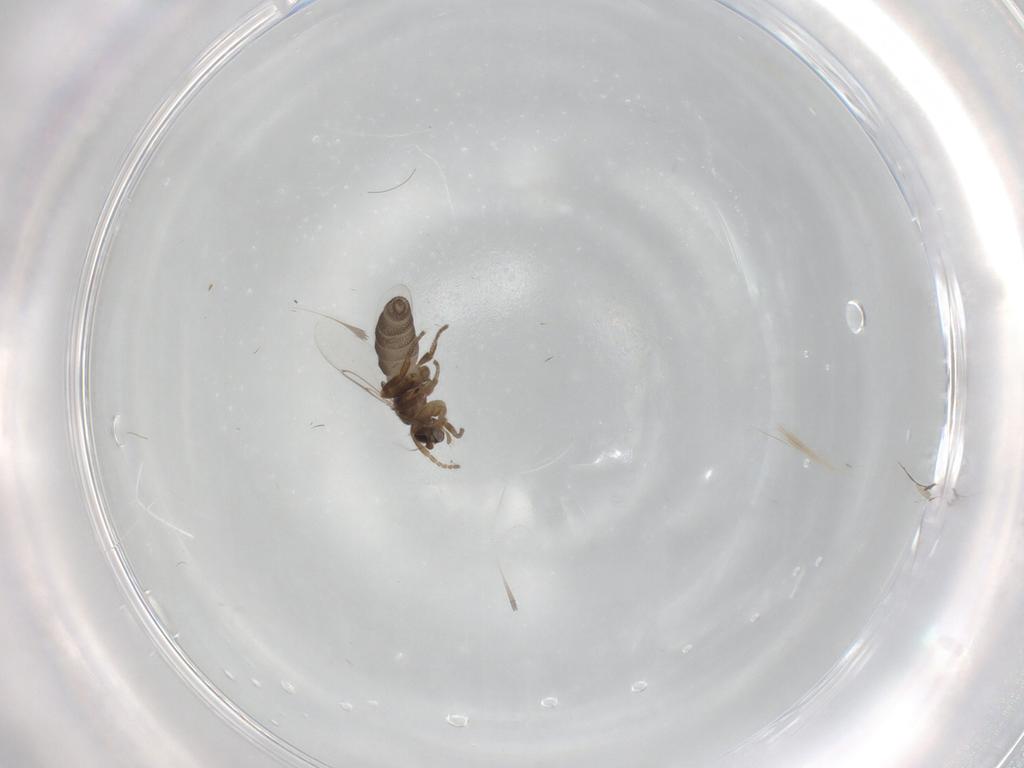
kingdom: Animalia
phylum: Arthropoda
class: Insecta
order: Diptera
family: Phoridae
